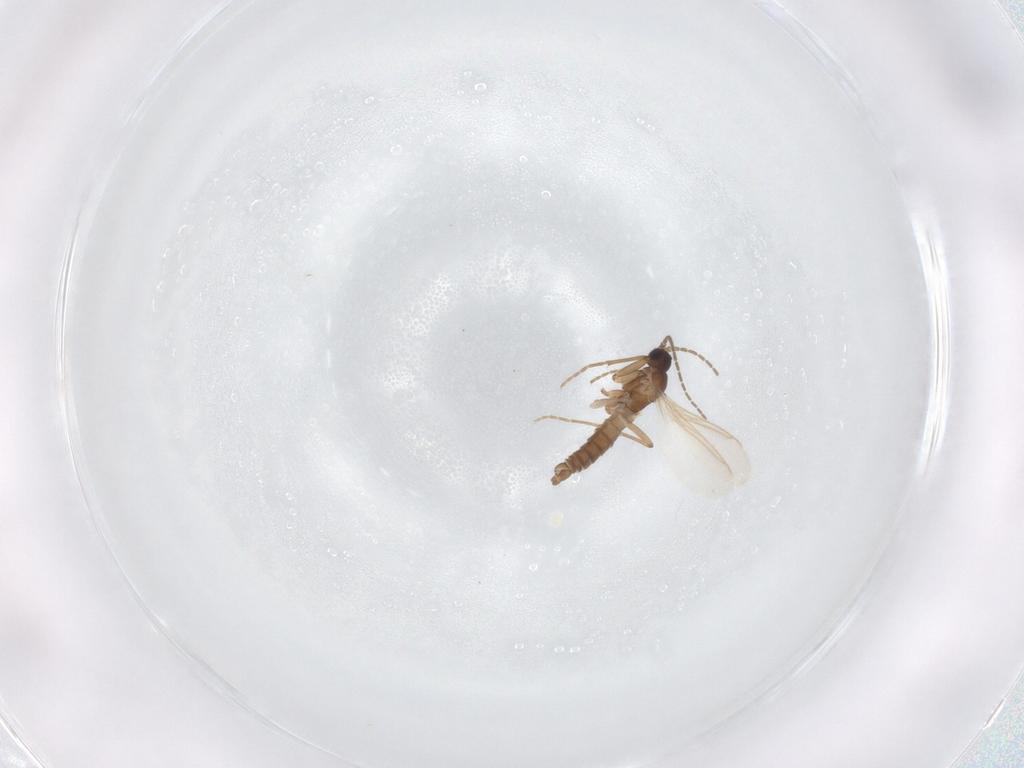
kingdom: Animalia
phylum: Arthropoda
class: Insecta
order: Diptera
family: Sciaridae
